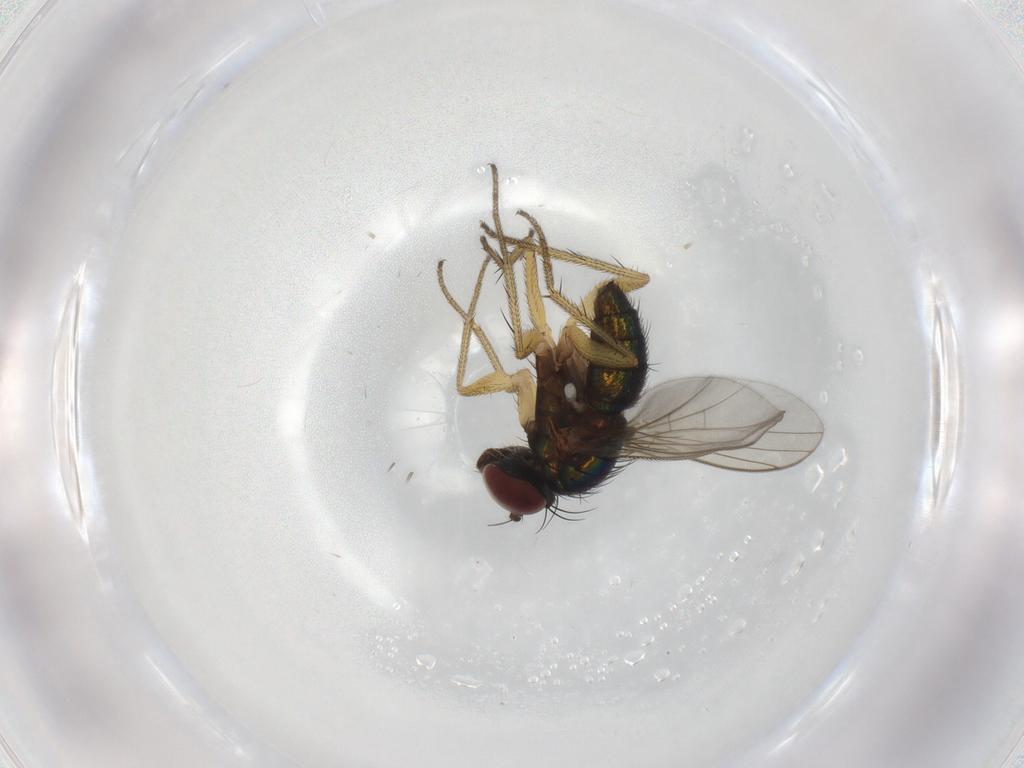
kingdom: Animalia
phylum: Arthropoda
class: Insecta
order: Diptera
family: Dolichopodidae
